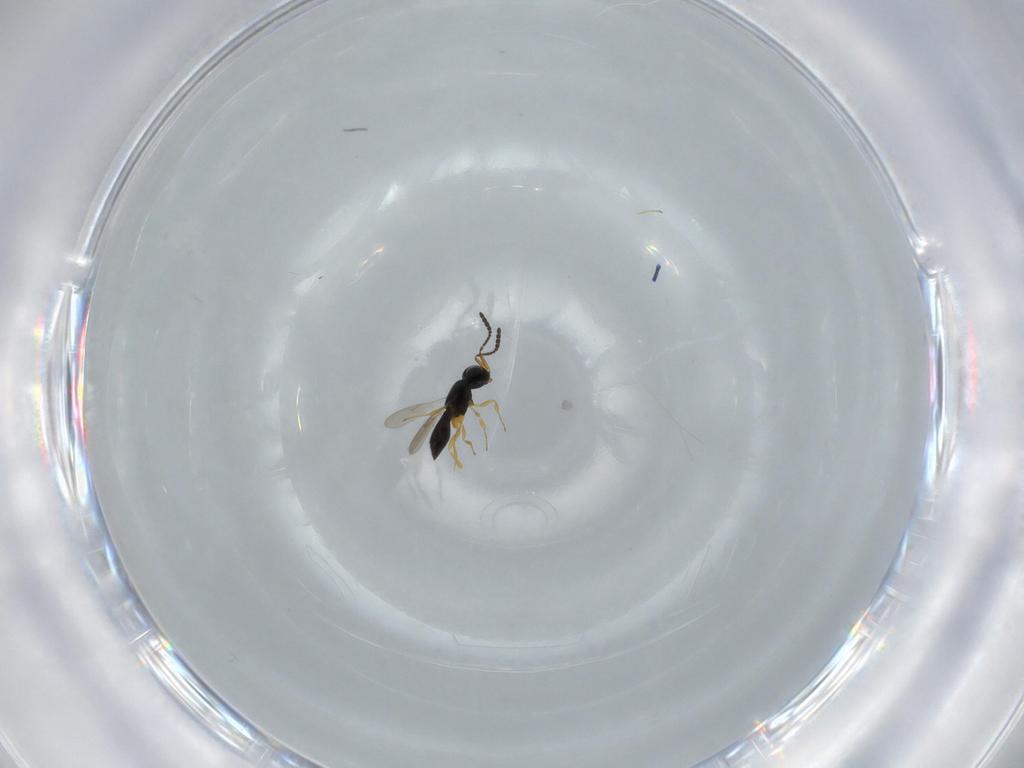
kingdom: Animalia
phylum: Arthropoda
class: Insecta
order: Hymenoptera
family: Scelionidae
